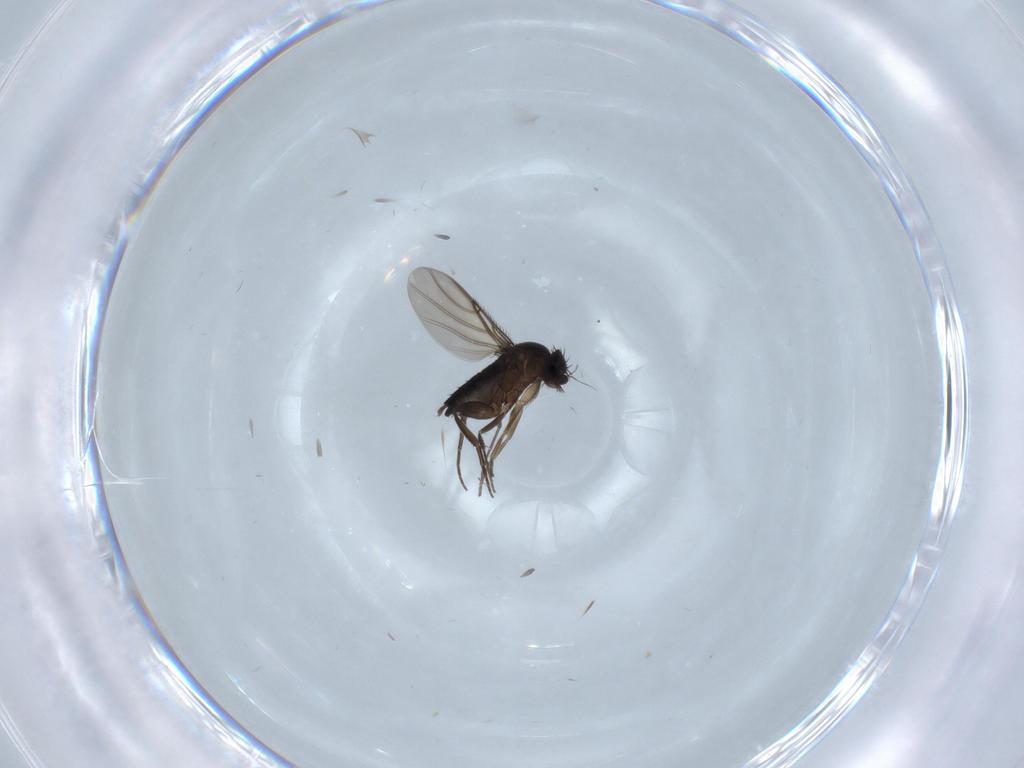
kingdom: Animalia
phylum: Arthropoda
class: Insecta
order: Diptera
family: Phoridae
